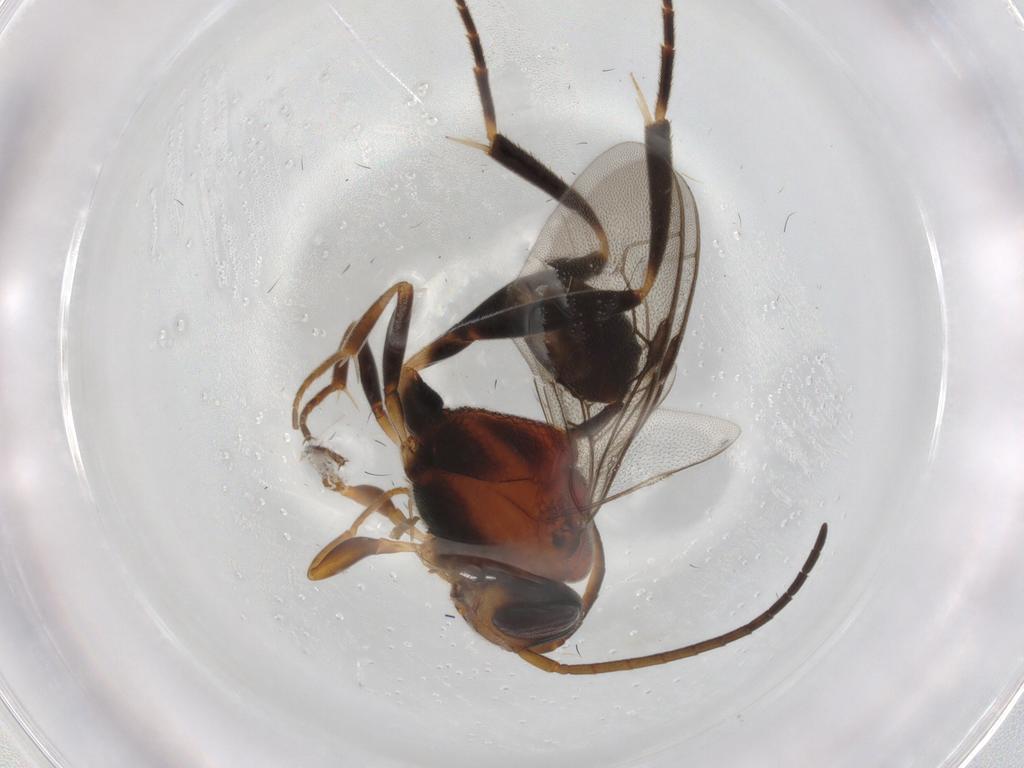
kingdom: Animalia
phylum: Arthropoda
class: Insecta
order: Hymenoptera
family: Evaniidae
